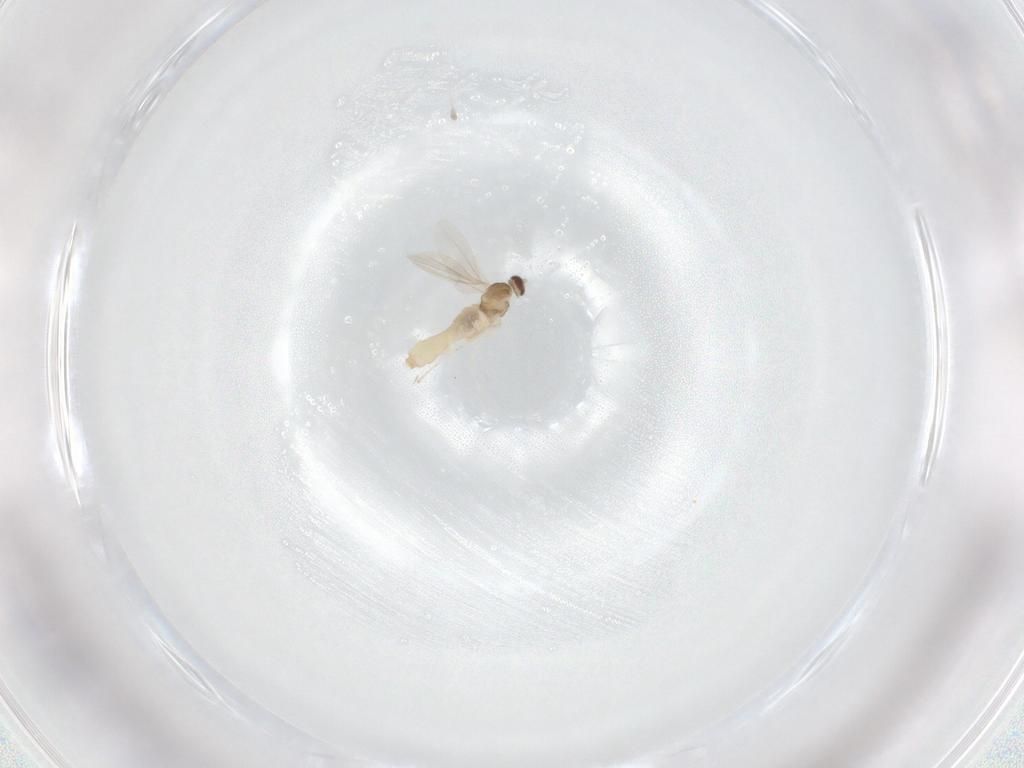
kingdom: Animalia
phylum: Arthropoda
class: Insecta
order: Diptera
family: Cecidomyiidae
